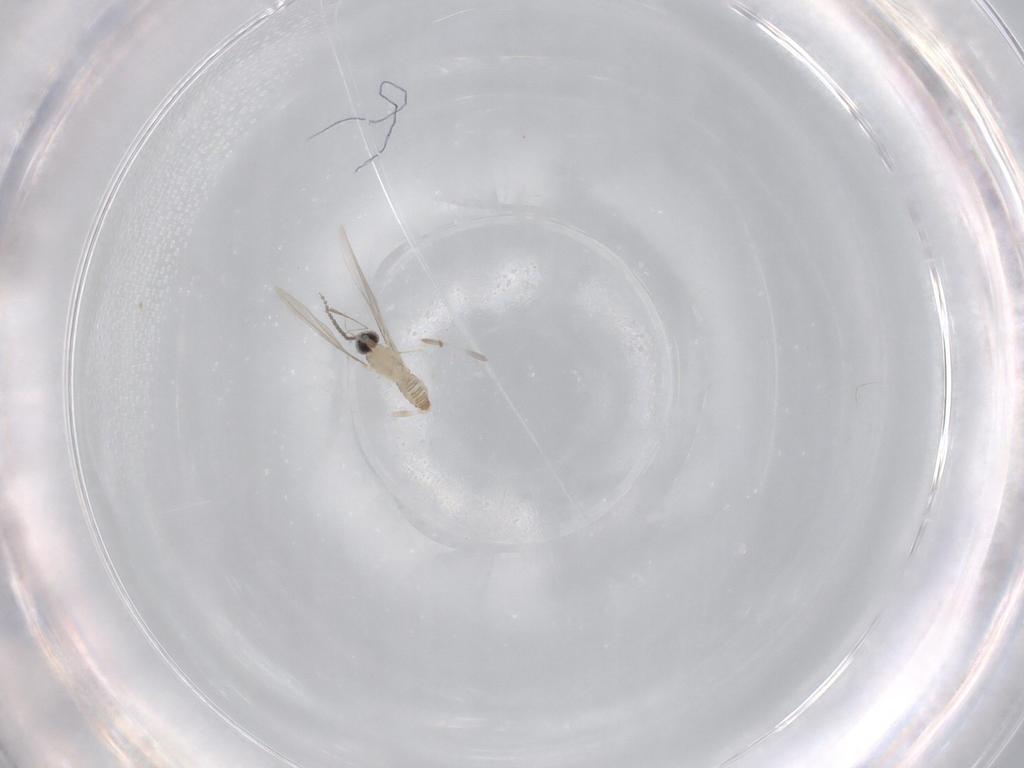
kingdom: Animalia
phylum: Arthropoda
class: Insecta
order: Diptera
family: Cecidomyiidae
